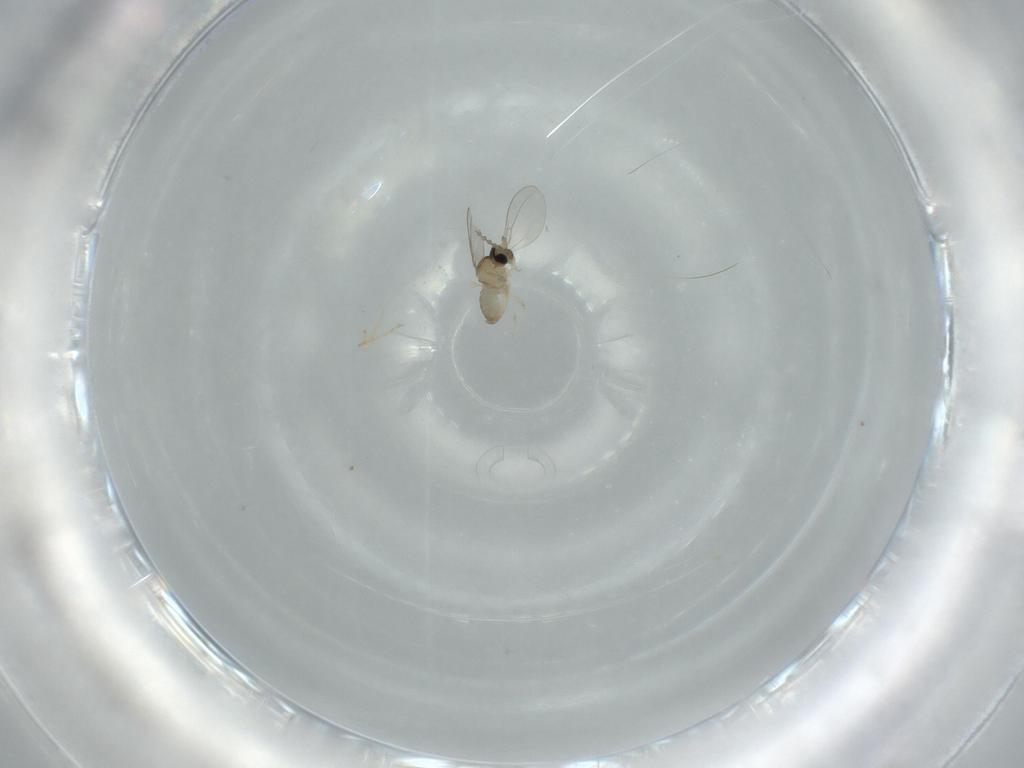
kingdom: Animalia
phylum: Arthropoda
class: Insecta
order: Diptera
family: Cecidomyiidae
